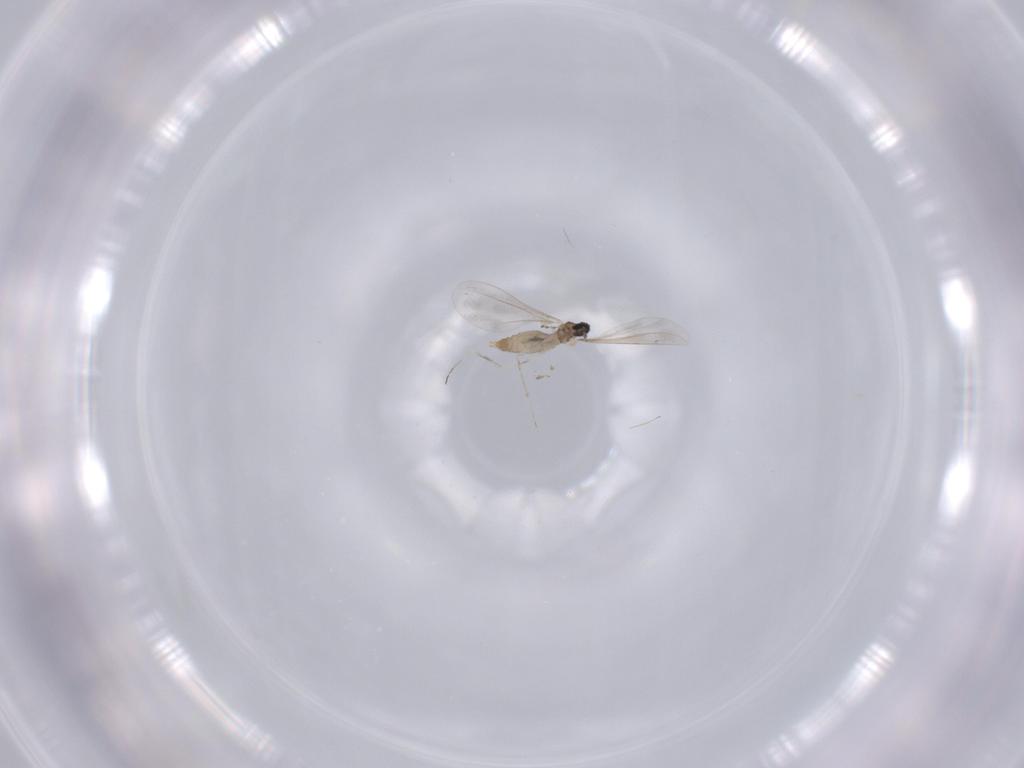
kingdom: Animalia
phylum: Arthropoda
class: Insecta
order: Diptera
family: Cecidomyiidae
